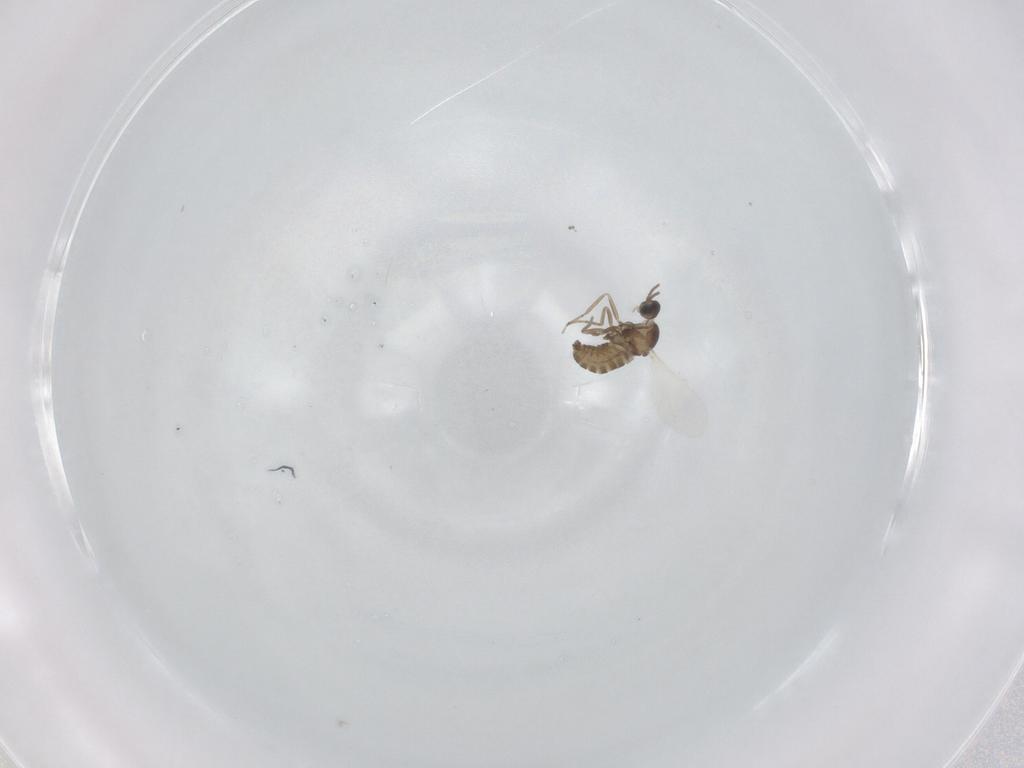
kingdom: Animalia
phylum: Arthropoda
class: Insecta
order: Diptera
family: Cecidomyiidae
